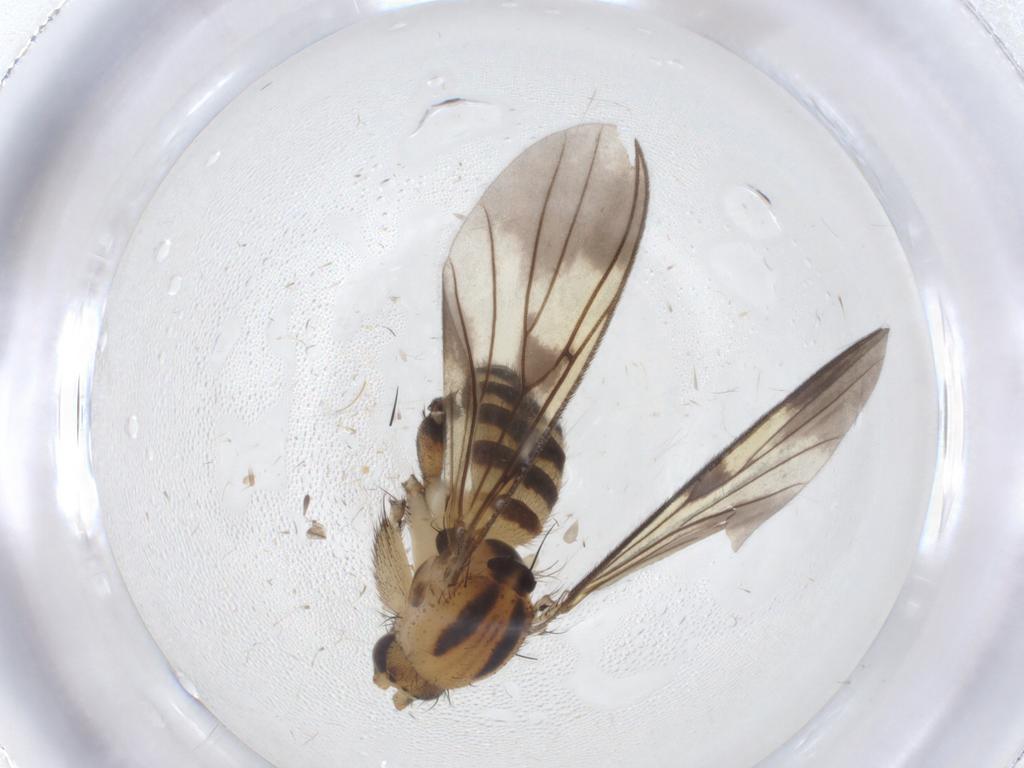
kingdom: Animalia
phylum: Arthropoda
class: Insecta
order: Diptera
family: Mycetophilidae
